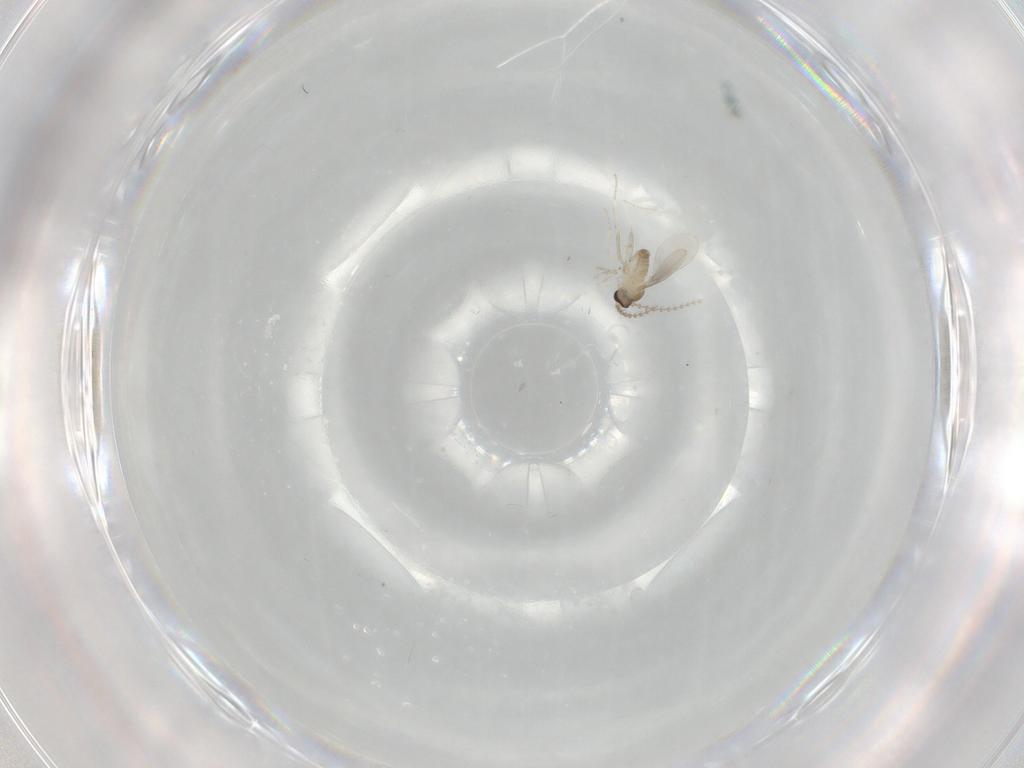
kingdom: Animalia
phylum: Arthropoda
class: Insecta
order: Diptera
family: Cecidomyiidae
